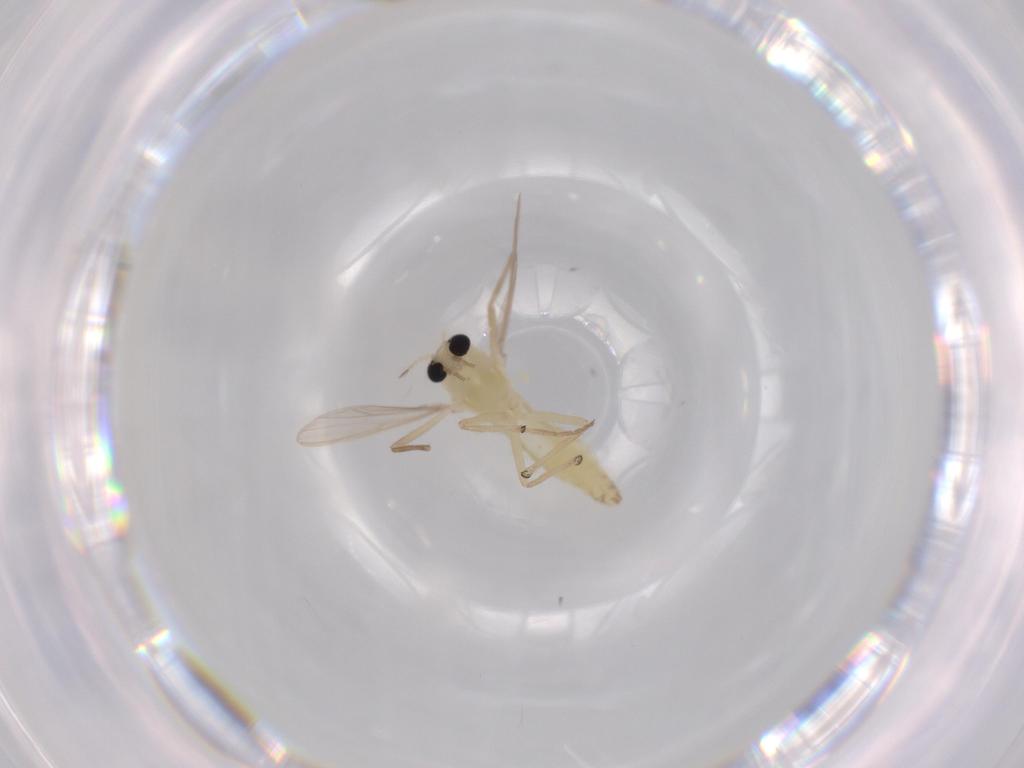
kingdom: Animalia
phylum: Arthropoda
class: Insecta
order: Diptera
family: Chironomidae
